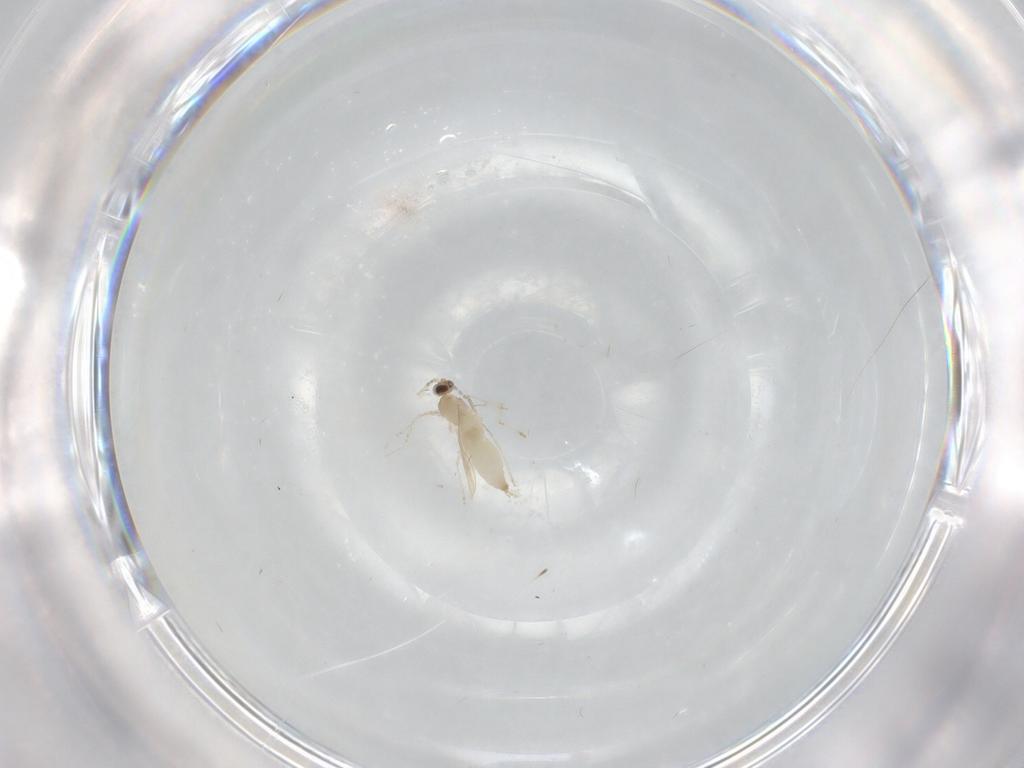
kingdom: Animalia
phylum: Arthropoda
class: Insecta
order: Diptera
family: Cecidomyiidae
